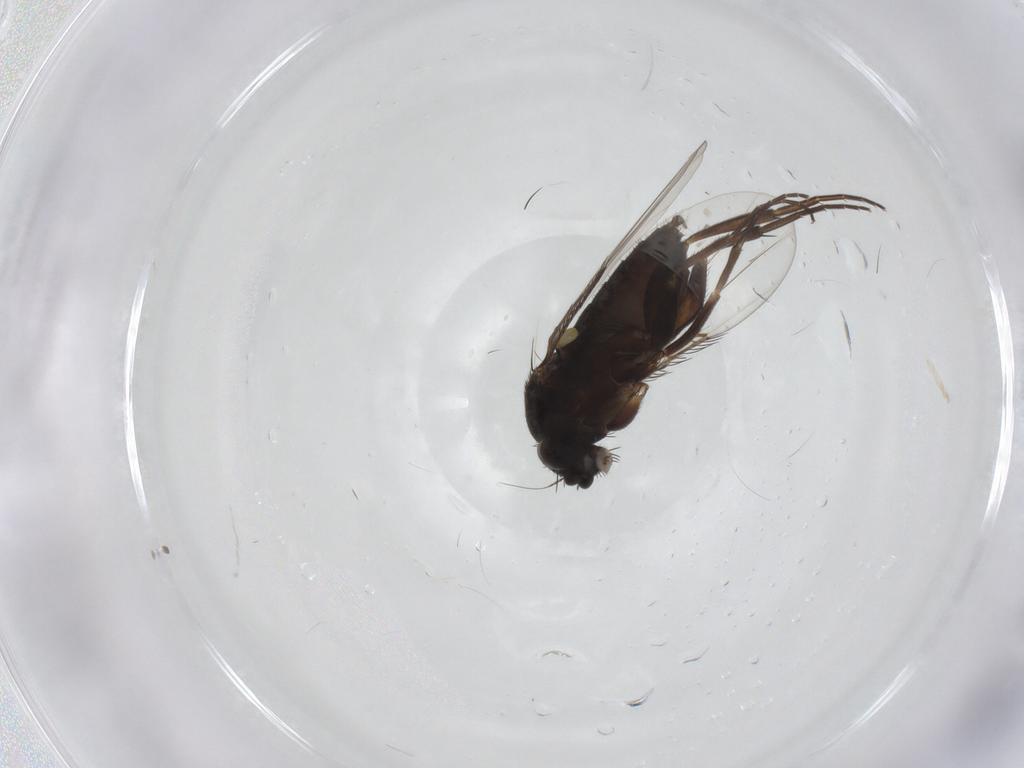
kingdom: Animalia
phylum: Arthropoda
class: Insecta
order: Diptera
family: Phoridae
